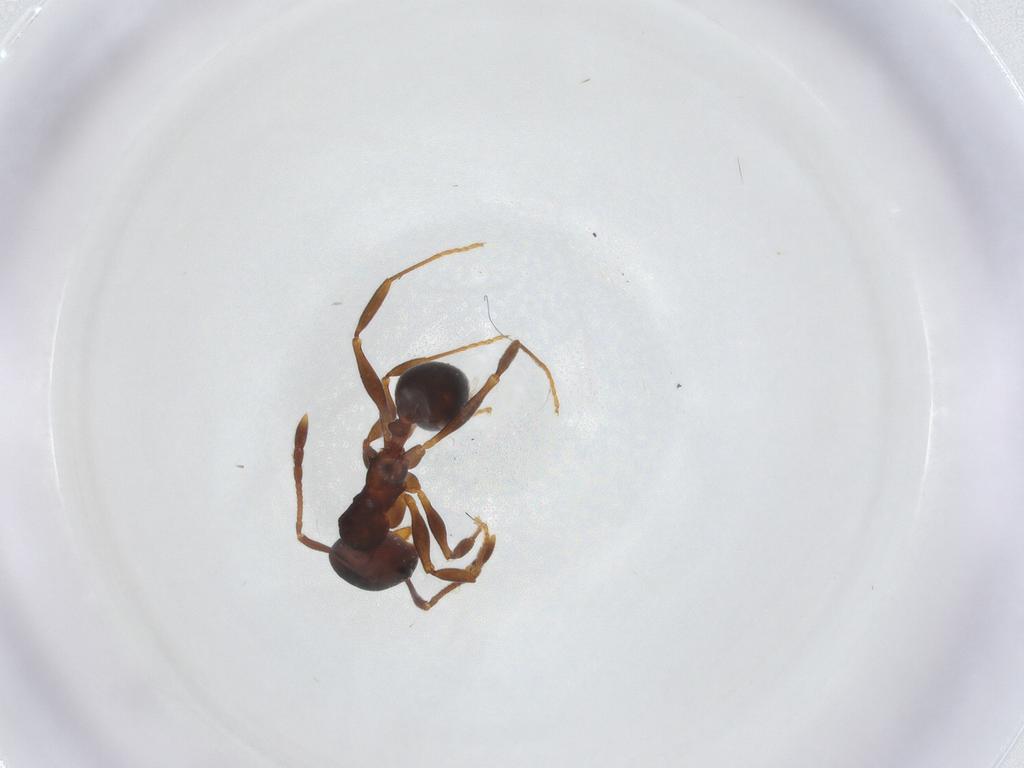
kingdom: Animalia
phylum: Arthropoda
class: Insecta
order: Hymenoptera
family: Formicidae
